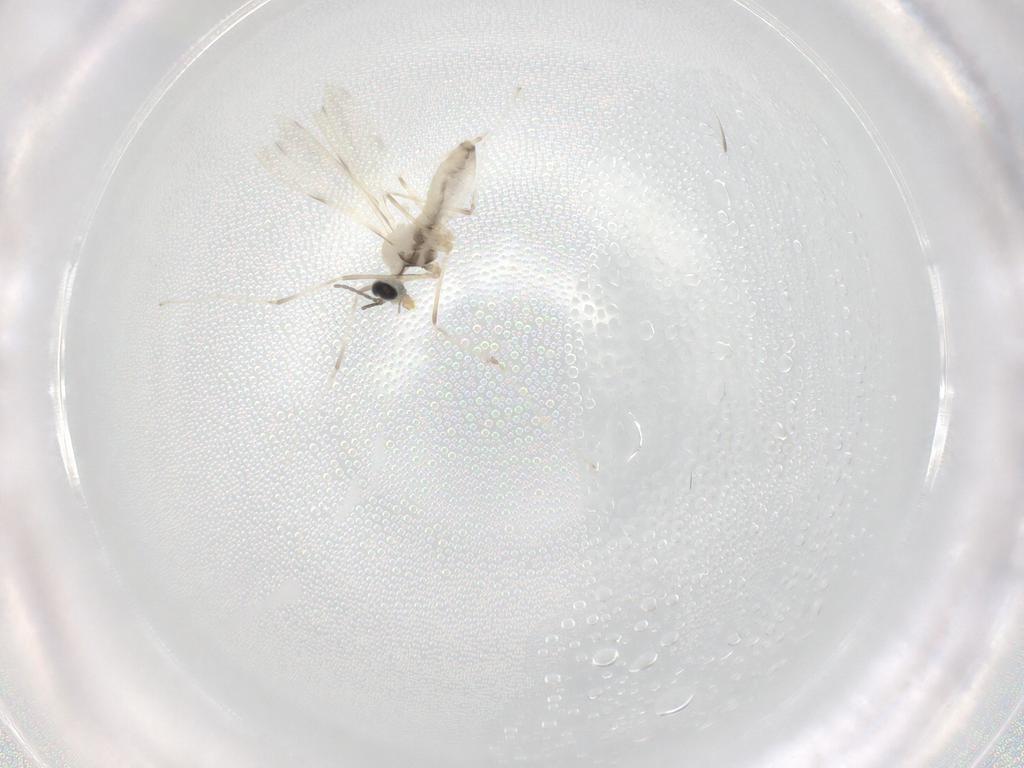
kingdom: Animalia
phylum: Arthropoda
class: Insecta
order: Diptera
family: Cecidomyiidae
